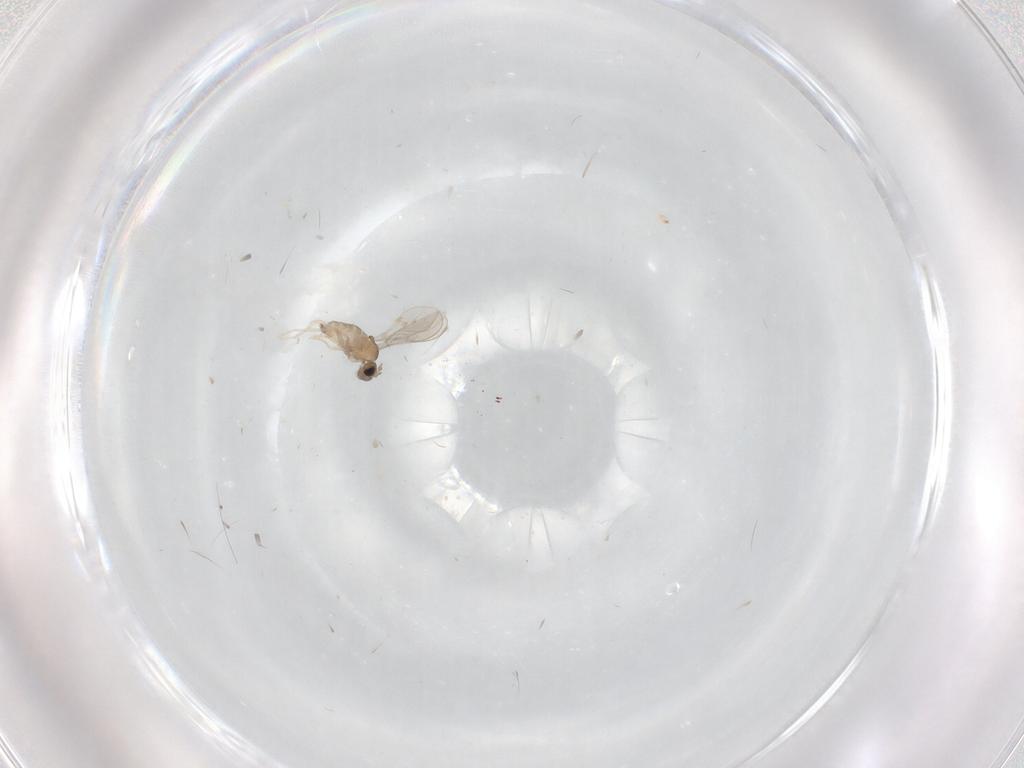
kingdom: Animalia
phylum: Arthropoda
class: Insecta
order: Diptera
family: Cecidomyiidae
